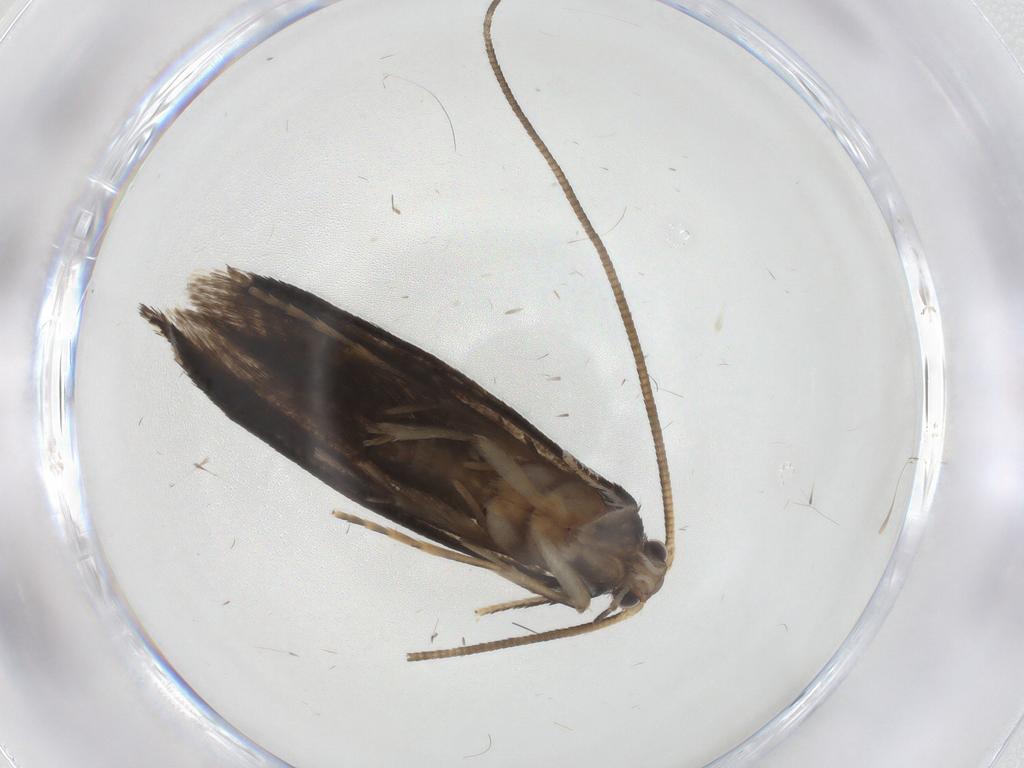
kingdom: Animalia
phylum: Arthropoda
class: Insecta
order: Lepidoptera
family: Tineidae
